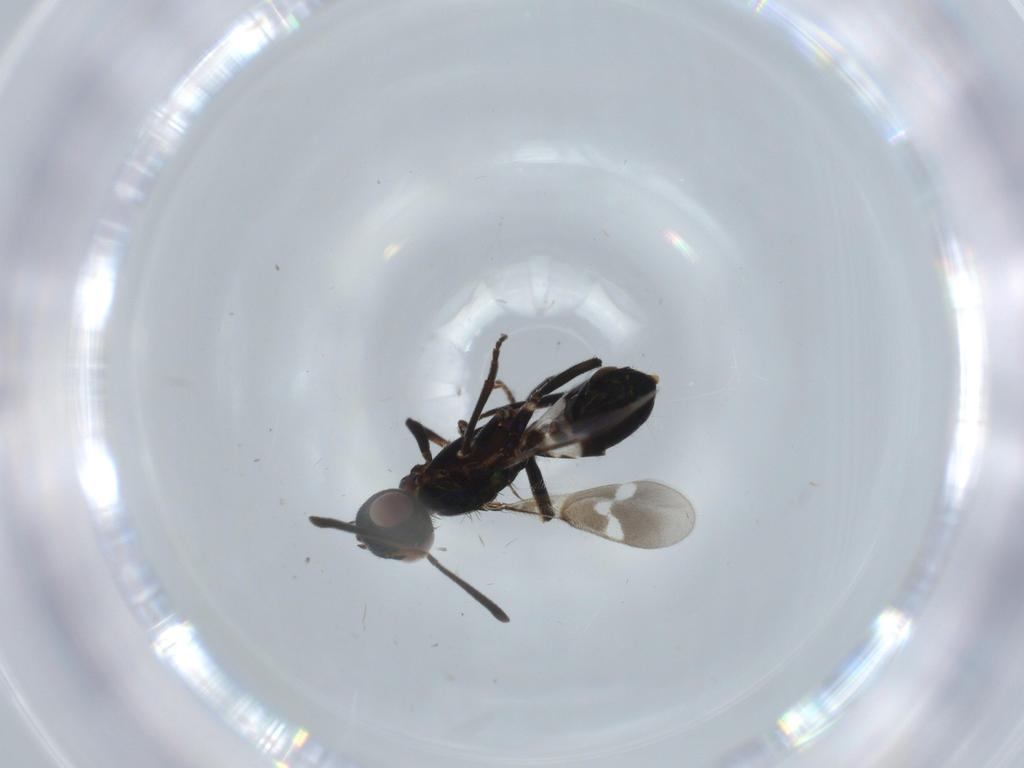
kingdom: Animalia
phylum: Arthropoda
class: Insecta
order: Hymenoptera
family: Eupelmidae
